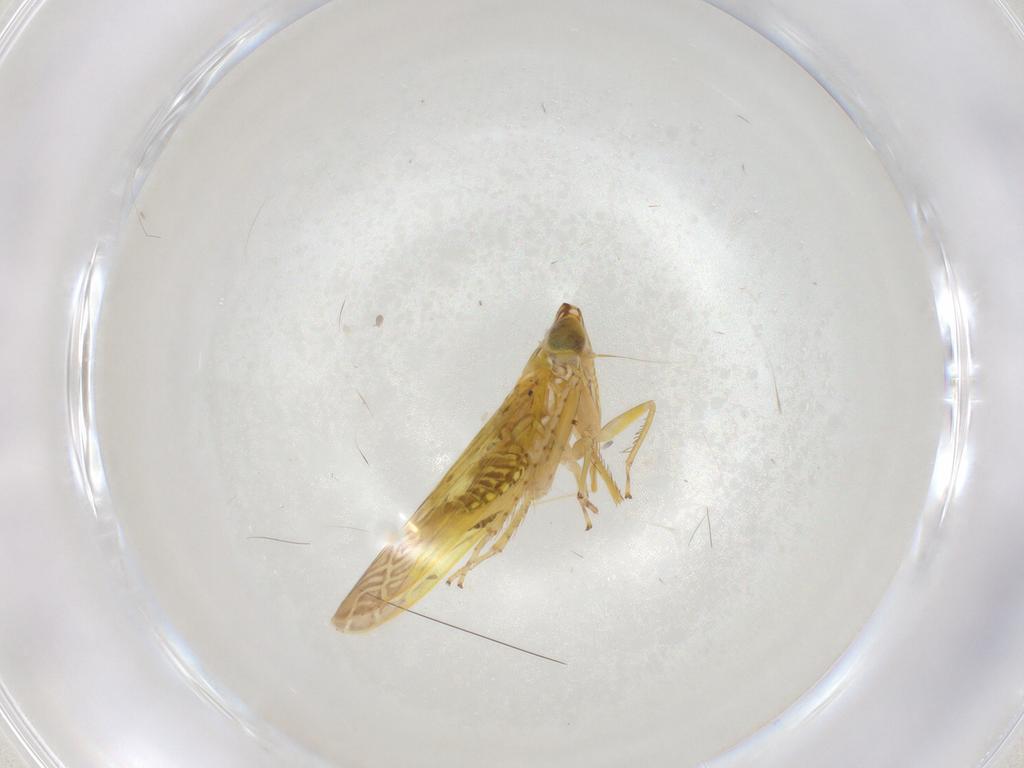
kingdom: Animalia
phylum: Arthropoda
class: Insecta
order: Hemiptera
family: Cicadellidae
